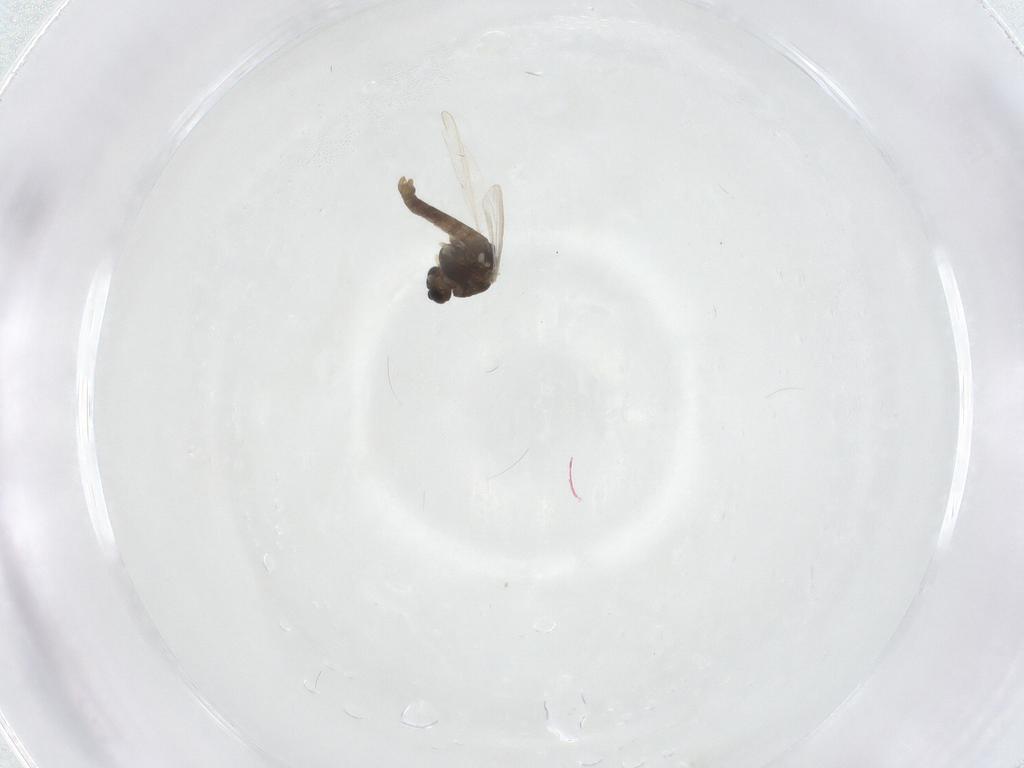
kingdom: Animalia
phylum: Arthropoda
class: Insecta
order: Diptera
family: Chironomidae
